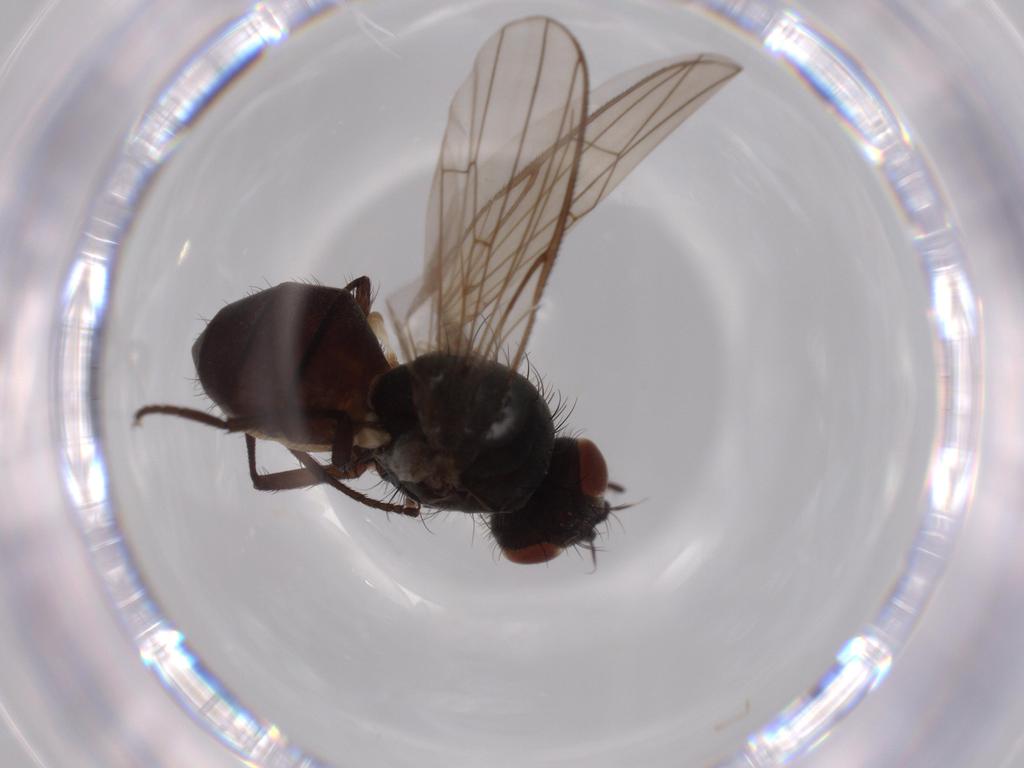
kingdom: Animalia
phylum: Arthropoda
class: Insecta
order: Diptera
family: Anthomyiidae
